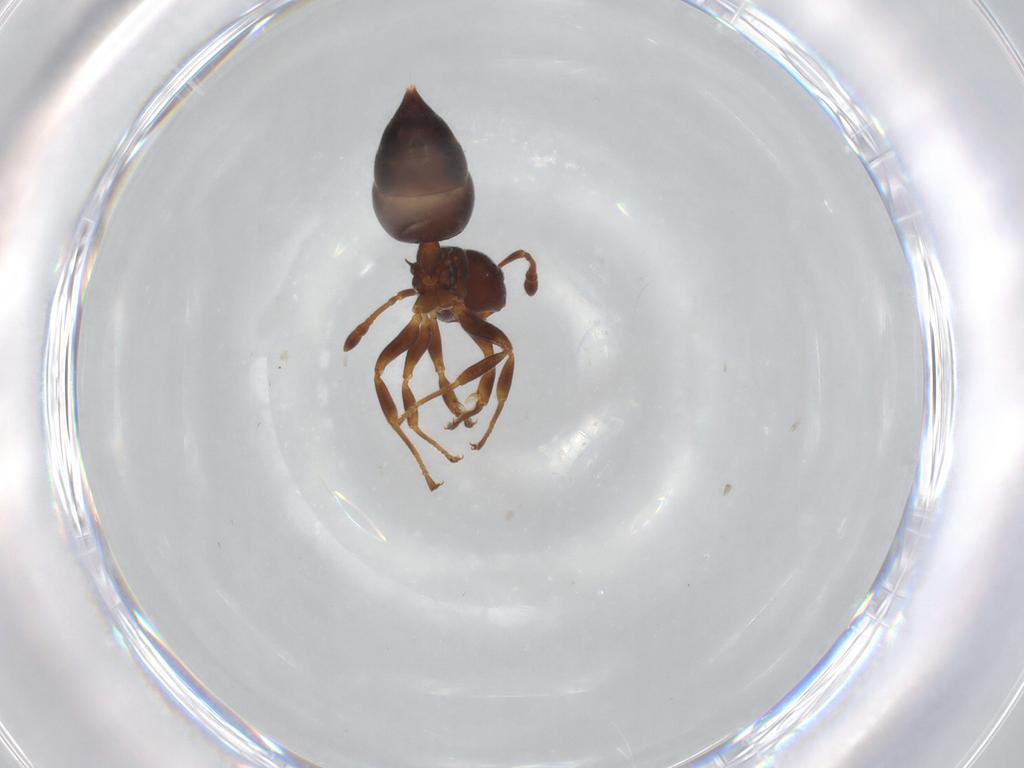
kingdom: Animalia
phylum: Arthropoda
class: Insecta
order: Hymenoptera
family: Formicidae
